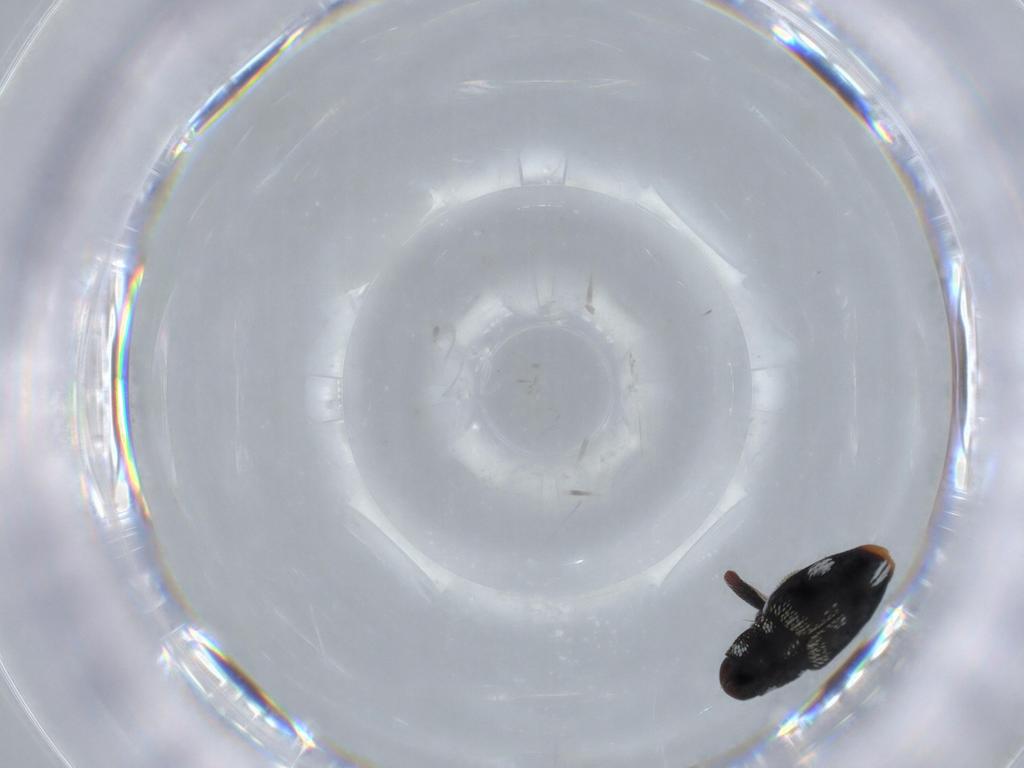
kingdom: Animalia
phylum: Arthropoda
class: Insecta
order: Coleoptera
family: Curculionidae
